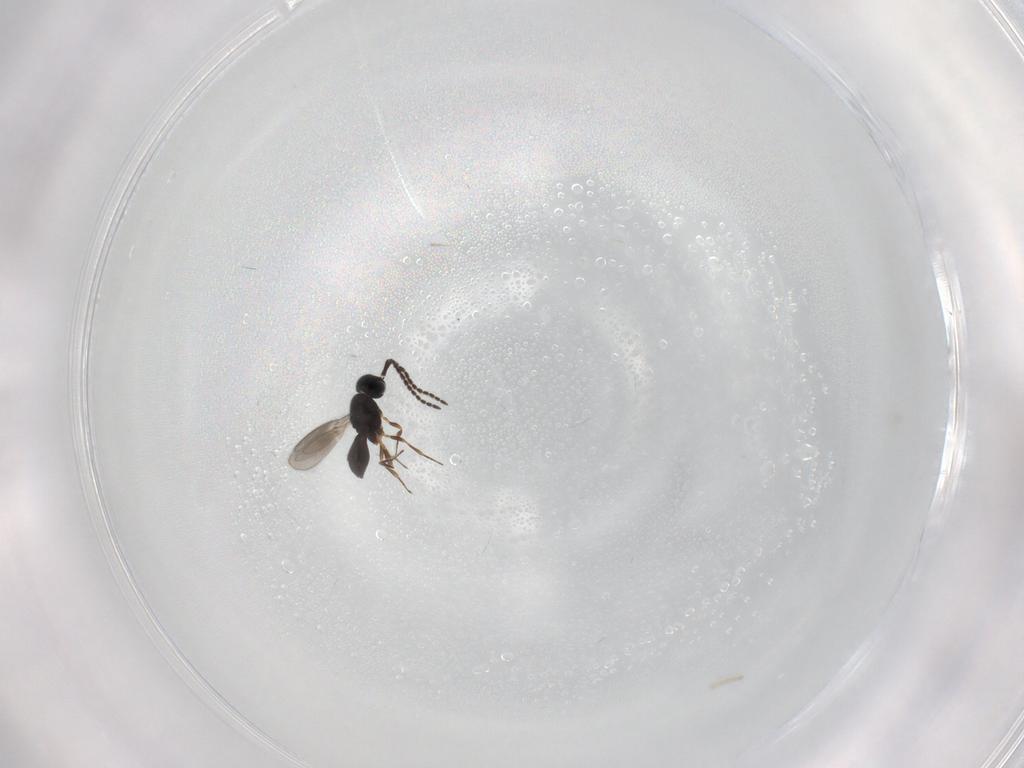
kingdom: Animalia
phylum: Arthropoda
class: Insecta
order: Hymenoptera
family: Scelionidae
